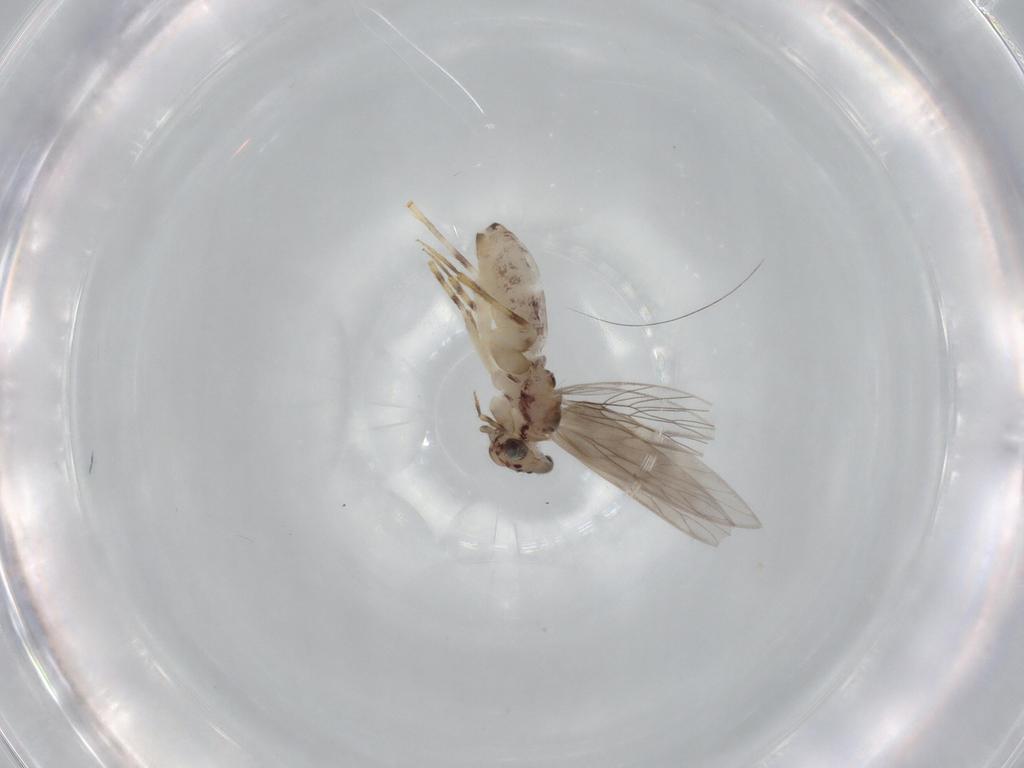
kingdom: Animalia
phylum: Arthropoda
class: Insecta
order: Psocodea
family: Lepidopsocidae
